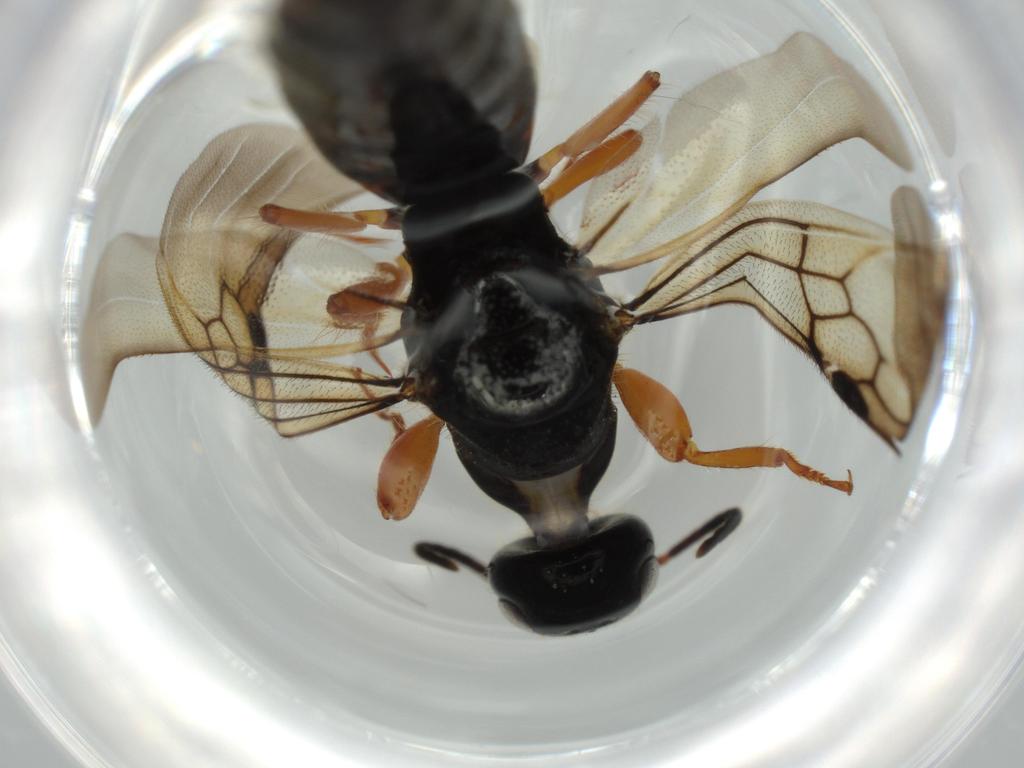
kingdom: Animalia
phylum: Arthropoda
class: Insecta
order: Hymenoptera
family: Scolebythidae
